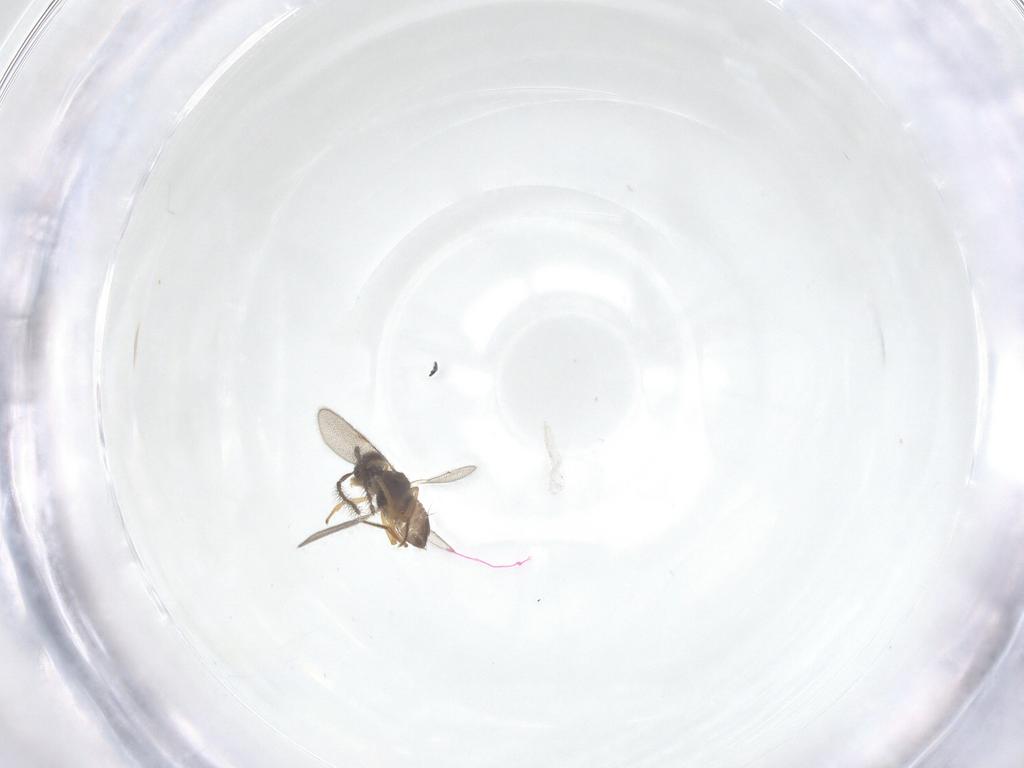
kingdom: Animalia
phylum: Arthropoda
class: Insecta
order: Hymenoptera
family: Encyrtidae
